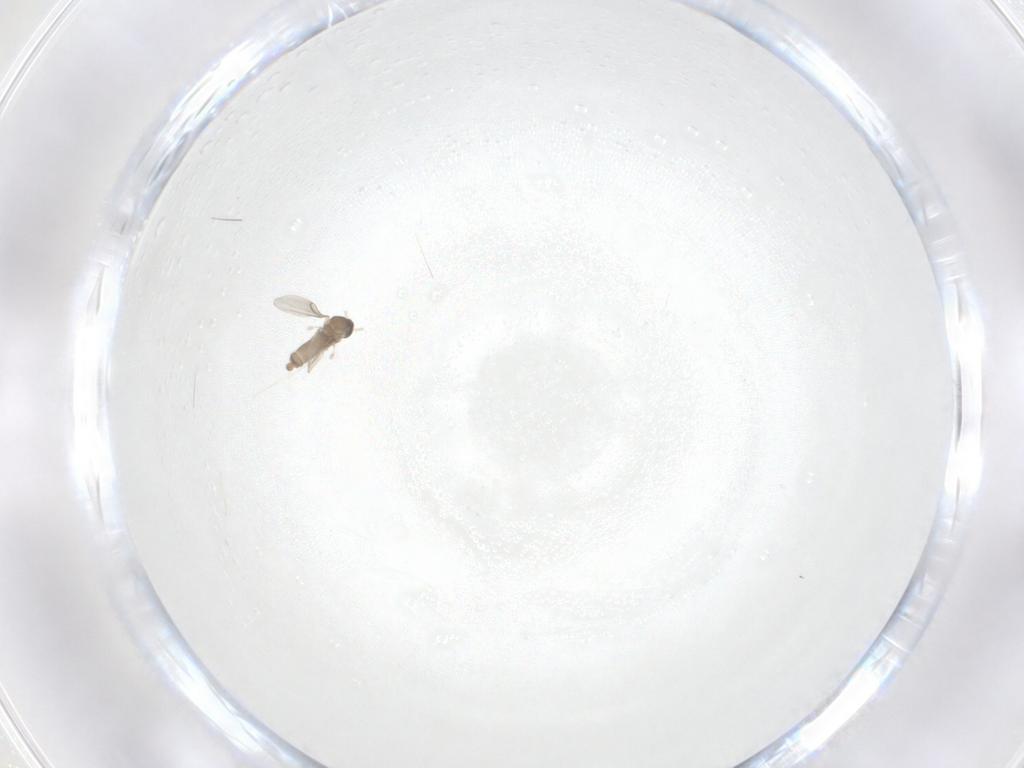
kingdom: Animalia
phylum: Arthropoda
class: Insecta
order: Diptera
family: Cecidomyiidae
